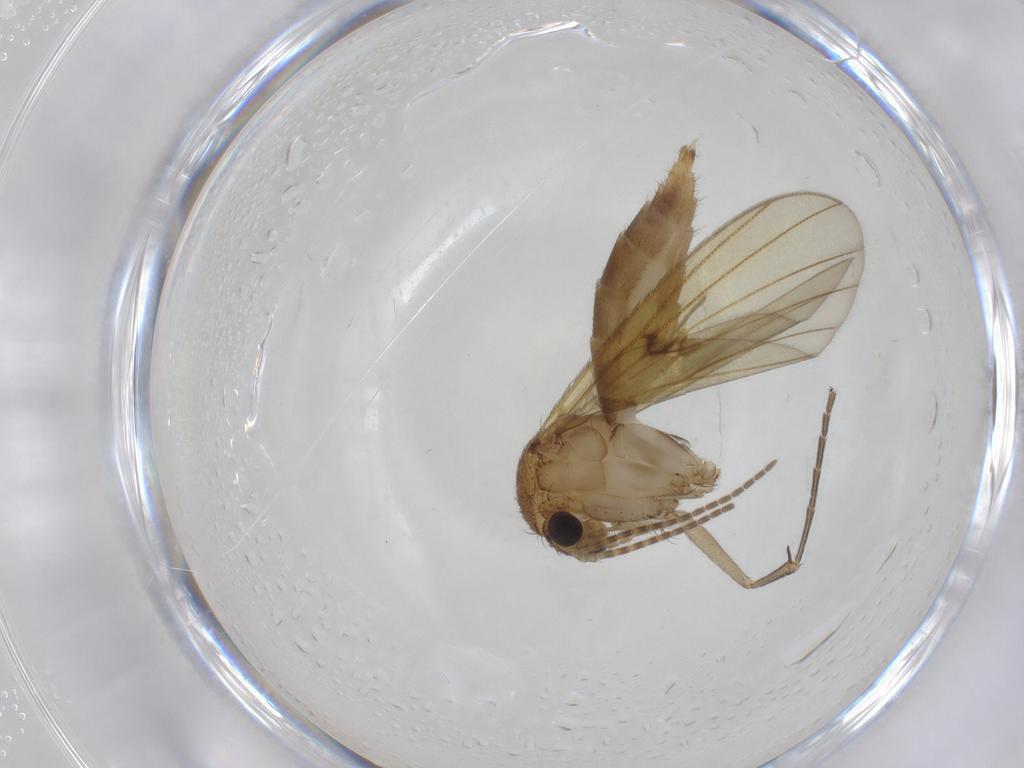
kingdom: Animalia
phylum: Arthropoda
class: Insecta
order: Diptera
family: Mycetophilidae
